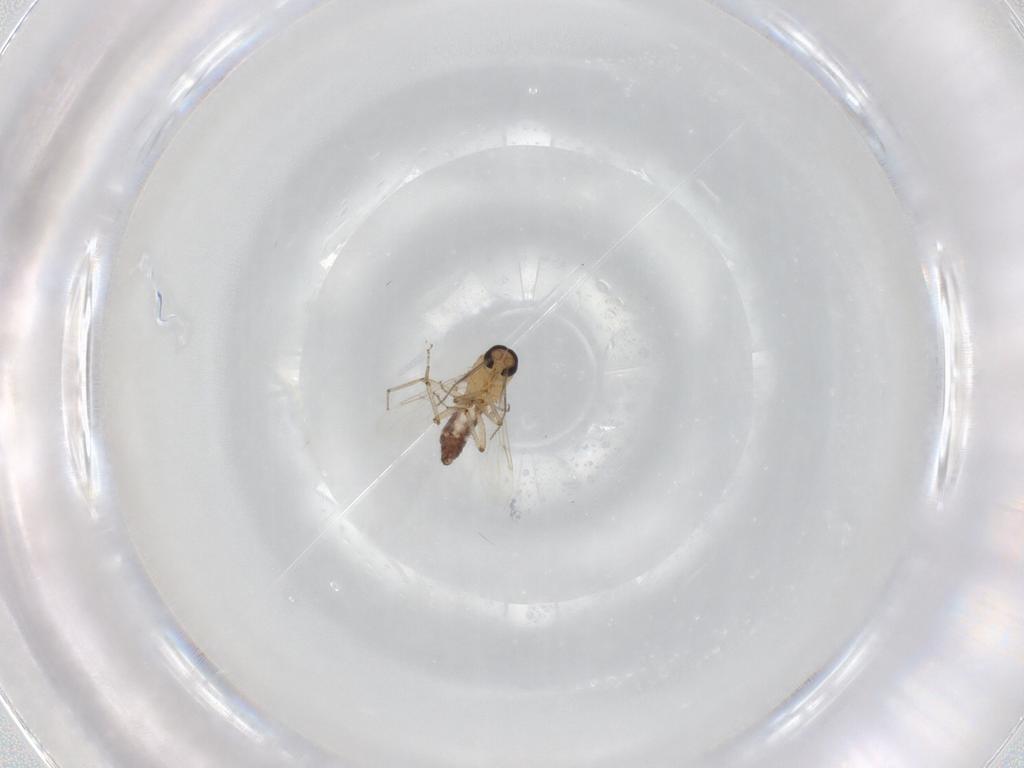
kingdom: Animalia
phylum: Arthropoda
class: Insecta
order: Diptera
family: Ceratopogonidae
